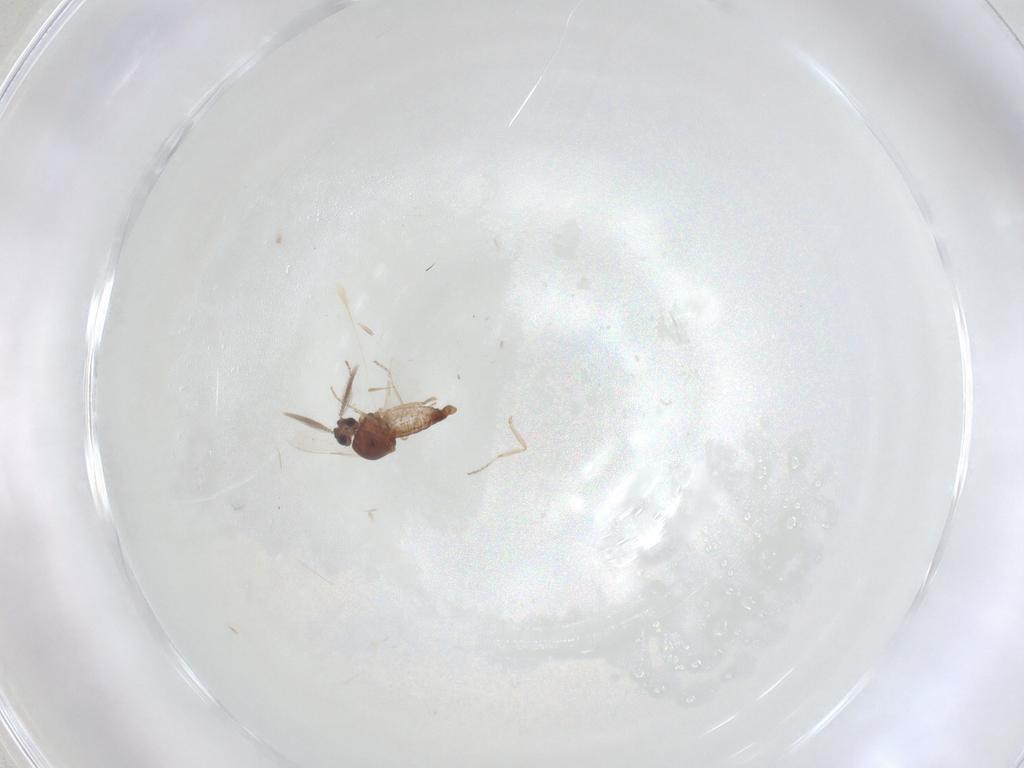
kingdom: Animalia
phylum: Arthropoda
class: Insecta
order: Diptera
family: Ceratopogonidae
